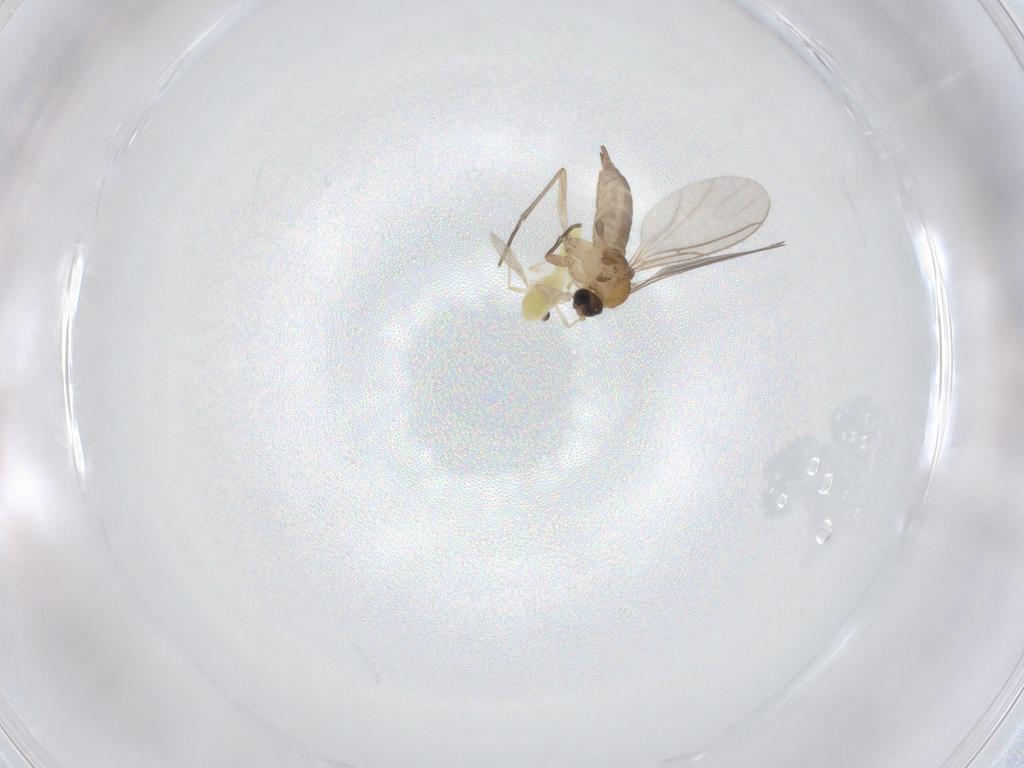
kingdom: Animalia
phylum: Arthropoda
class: Insecta
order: Diptera
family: Sciaridae
